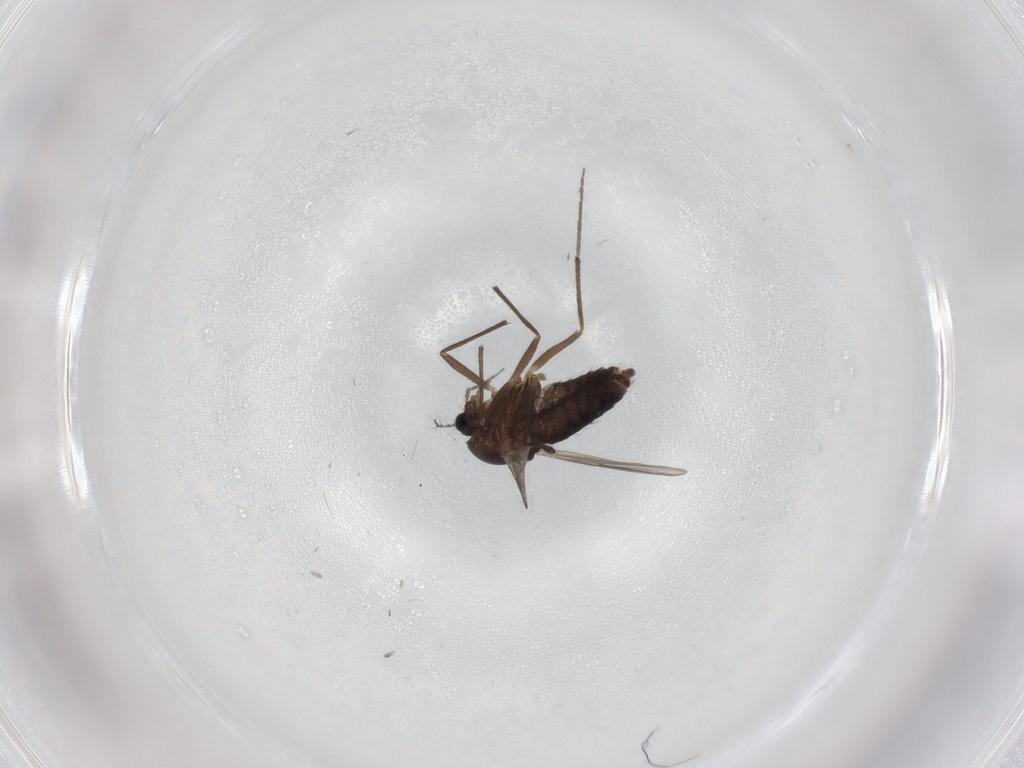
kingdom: Animalia
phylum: Arthropoda
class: Insecta
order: Diptera
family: Chironomidae
